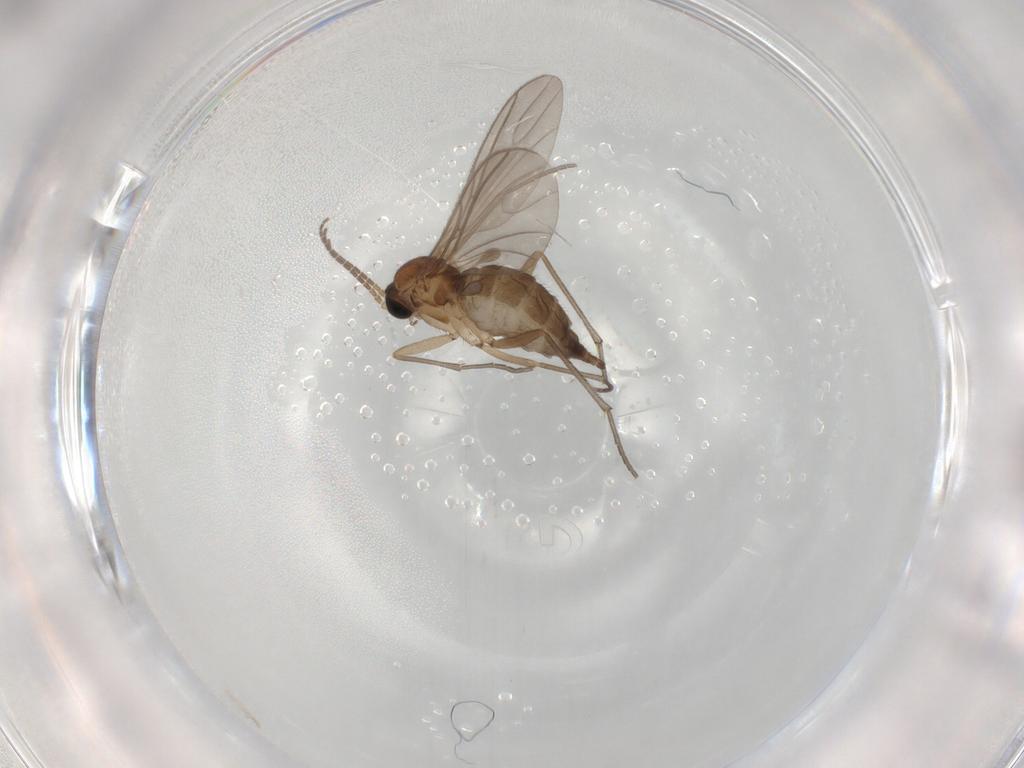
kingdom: Animalia
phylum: Arthropoda
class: Insecta
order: Diptera
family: Sciaridae
